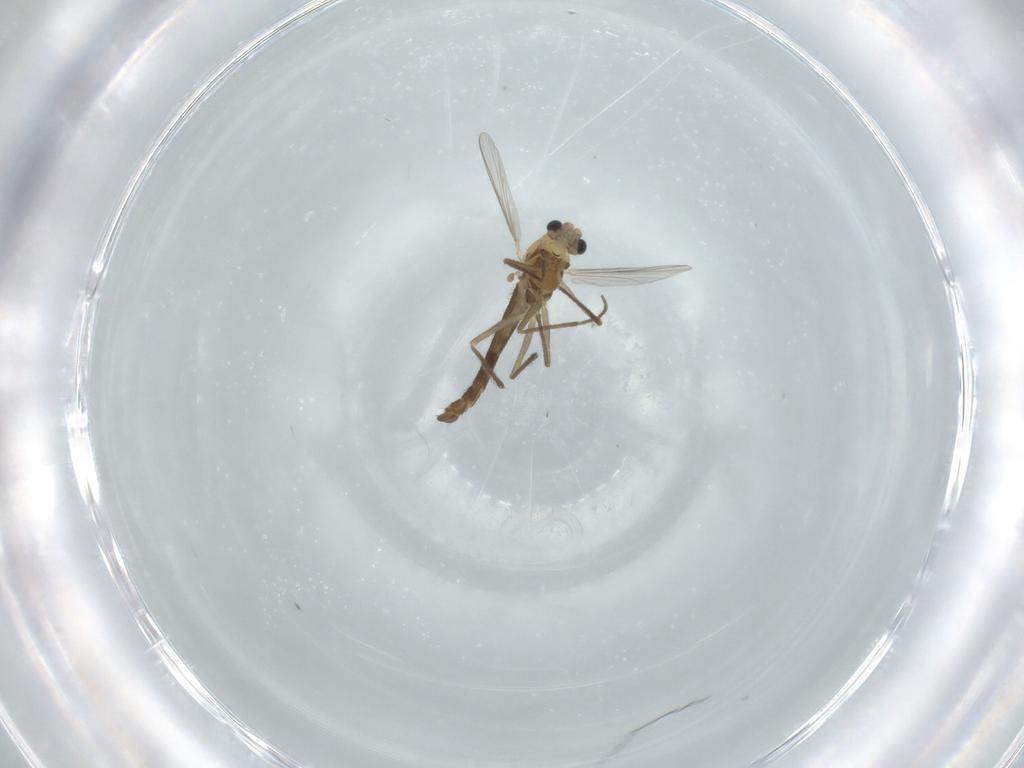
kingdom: Animalia
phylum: Arthropoda
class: Insecta
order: Diptera
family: Chironomidae
